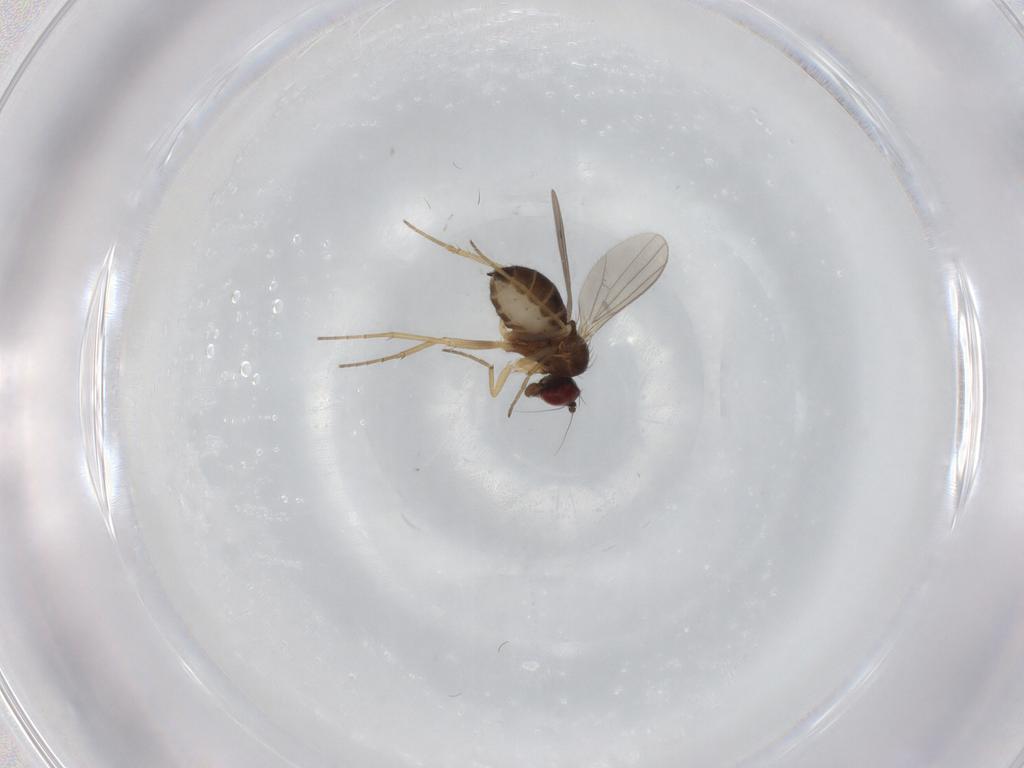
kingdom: Animalia
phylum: Arthropoda
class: Insecta
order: Diptera
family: Dolichopodidae
